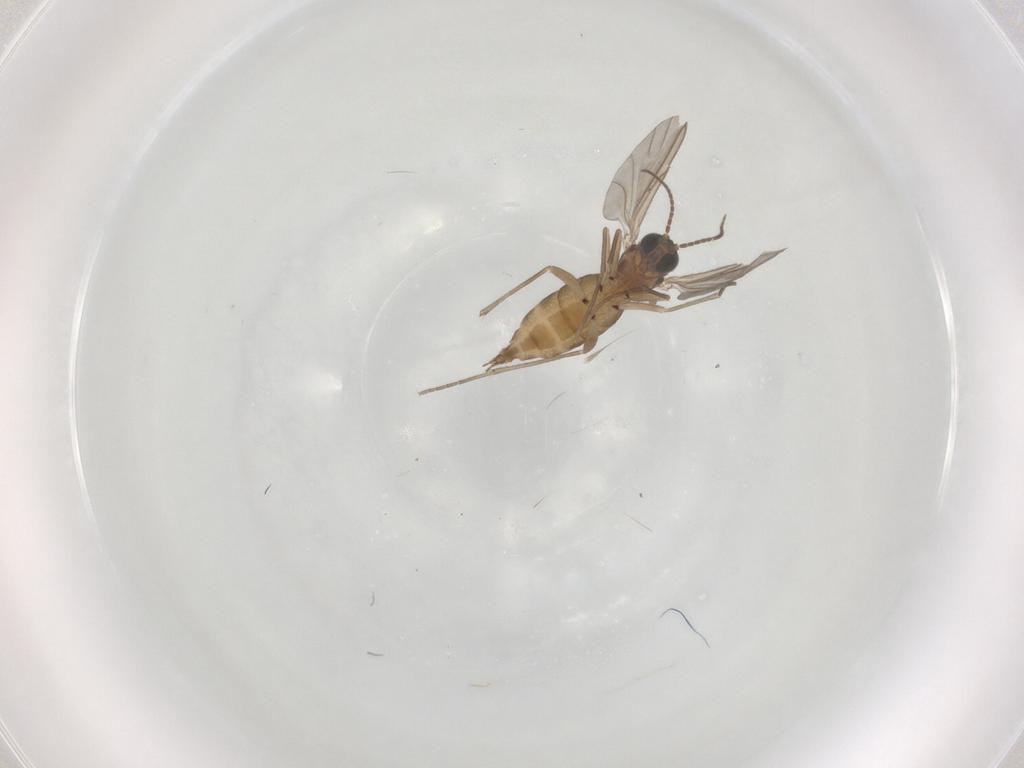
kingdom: Animalia
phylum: Arthropoda
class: Insecta
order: Diptera
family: Sciaridae
